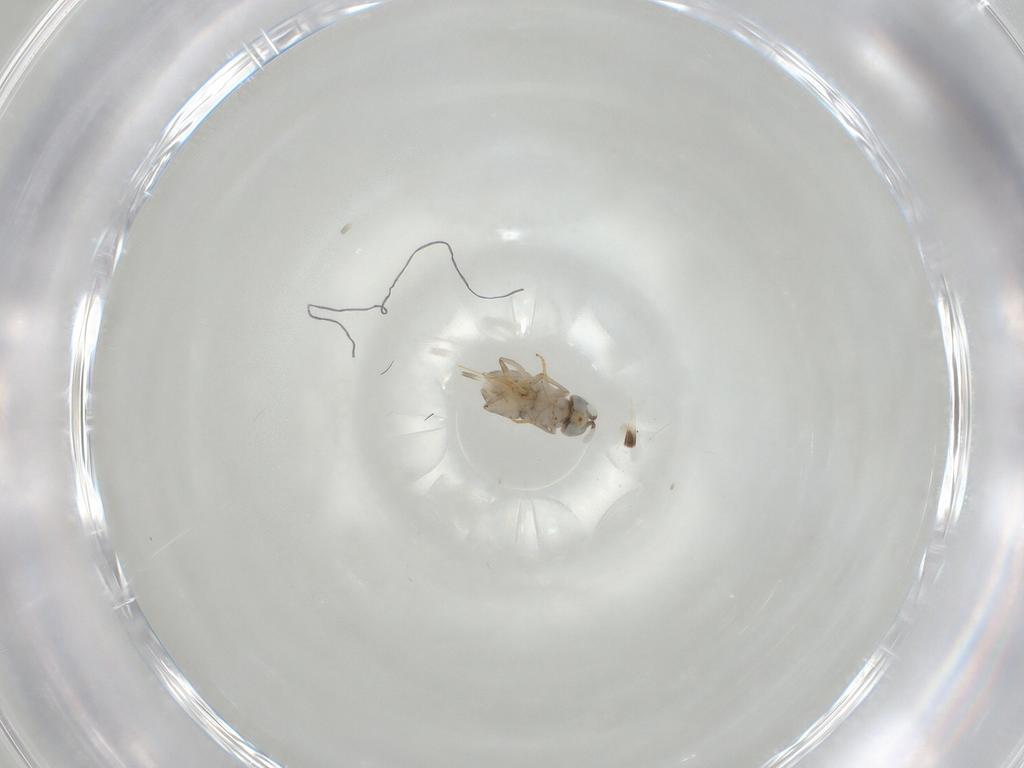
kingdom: Animalia
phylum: Arthropoda
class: Insecta
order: Hymenoptera
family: Encyrtidae
